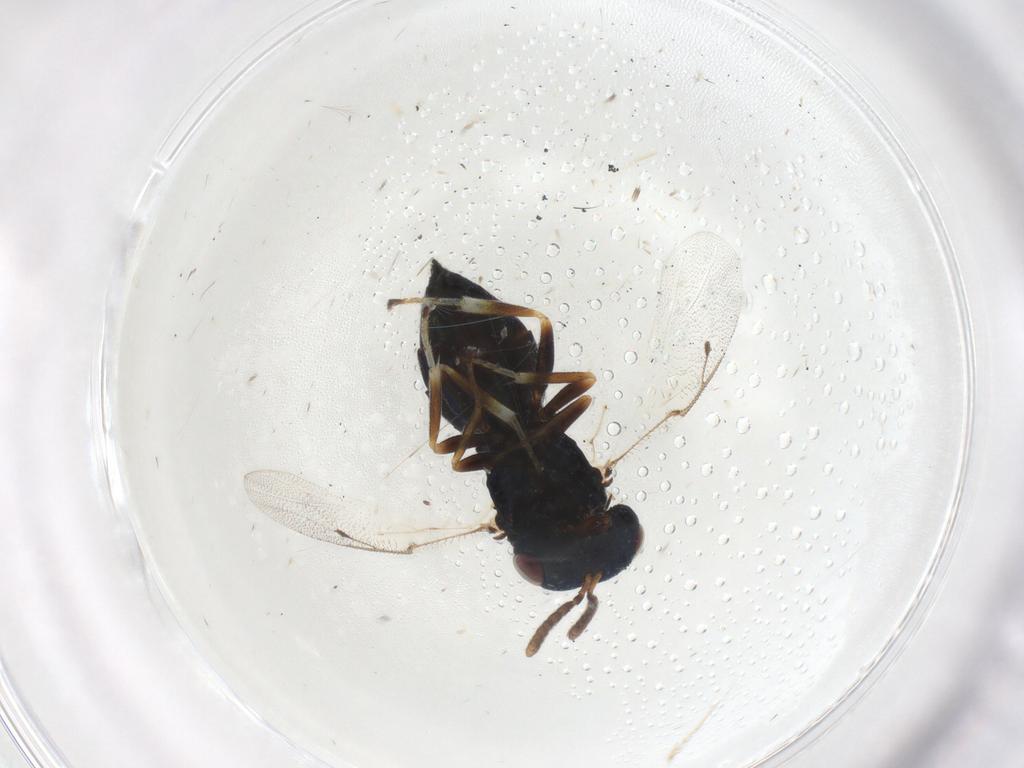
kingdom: Animalia
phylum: Arthropoda
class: Insecta
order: Hymenoptera
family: Pteromalidae
